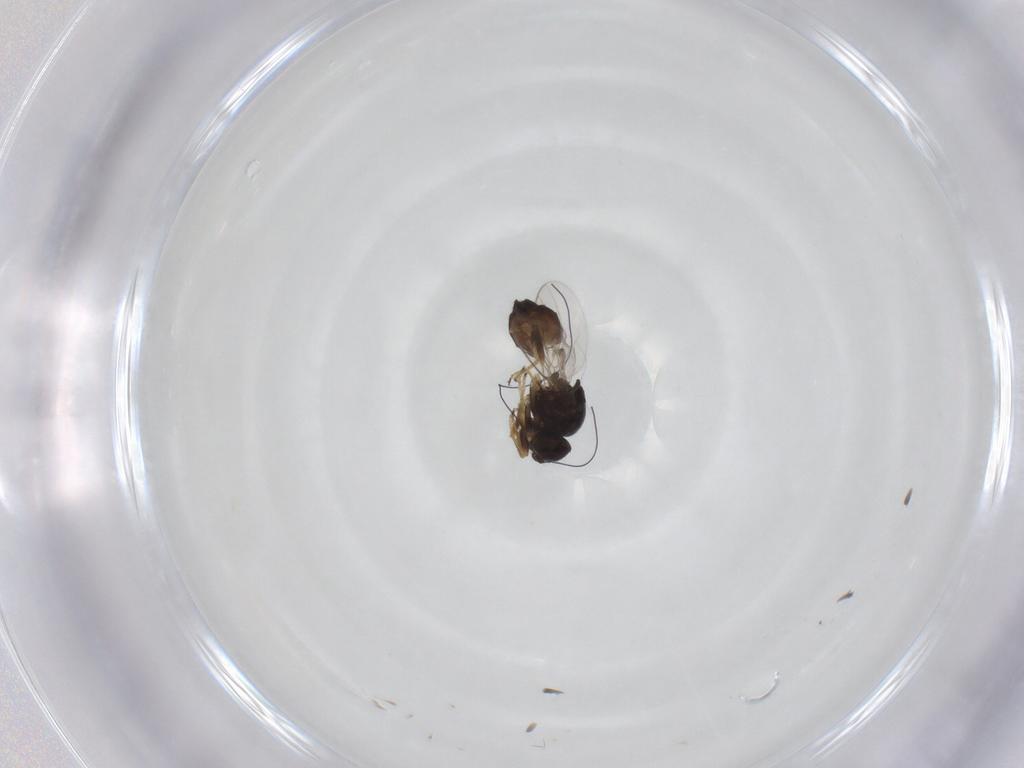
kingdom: Animalia
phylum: Arthropoda
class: Insecta
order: Diptera
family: Chloropidae
